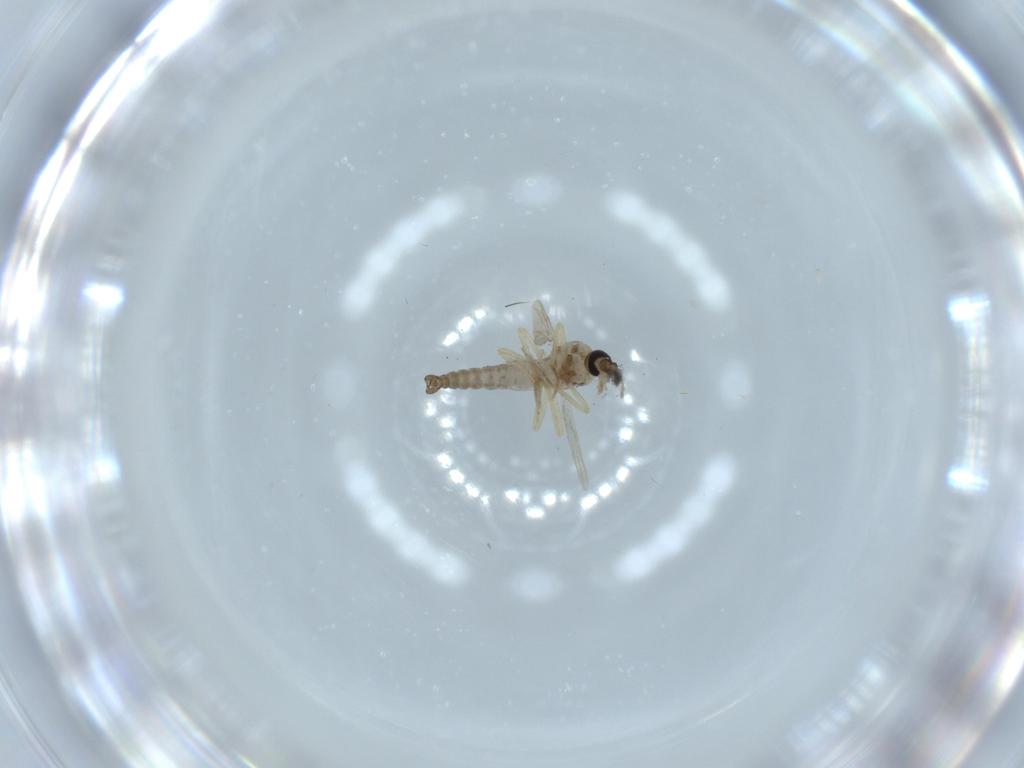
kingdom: Animalia
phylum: Arthropoda
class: Insecta
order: Diptera
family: Ceratopogonidae
